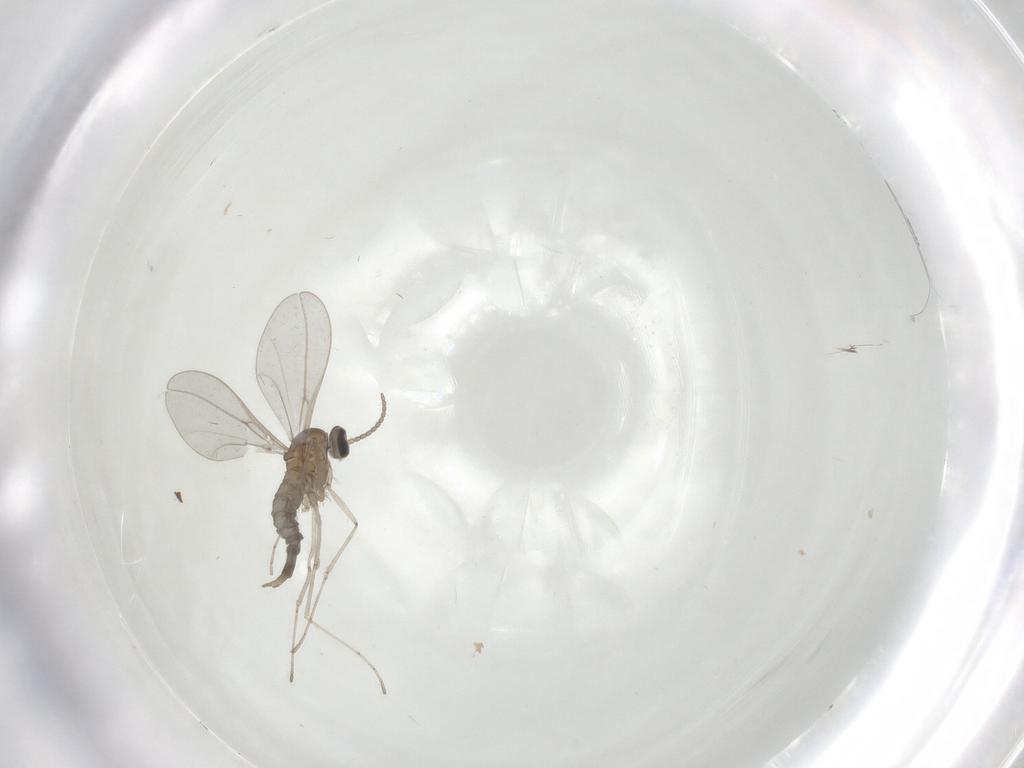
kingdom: Animalia
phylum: Arthropoda
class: Insecta
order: Diptera
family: Cecidomyiidae
